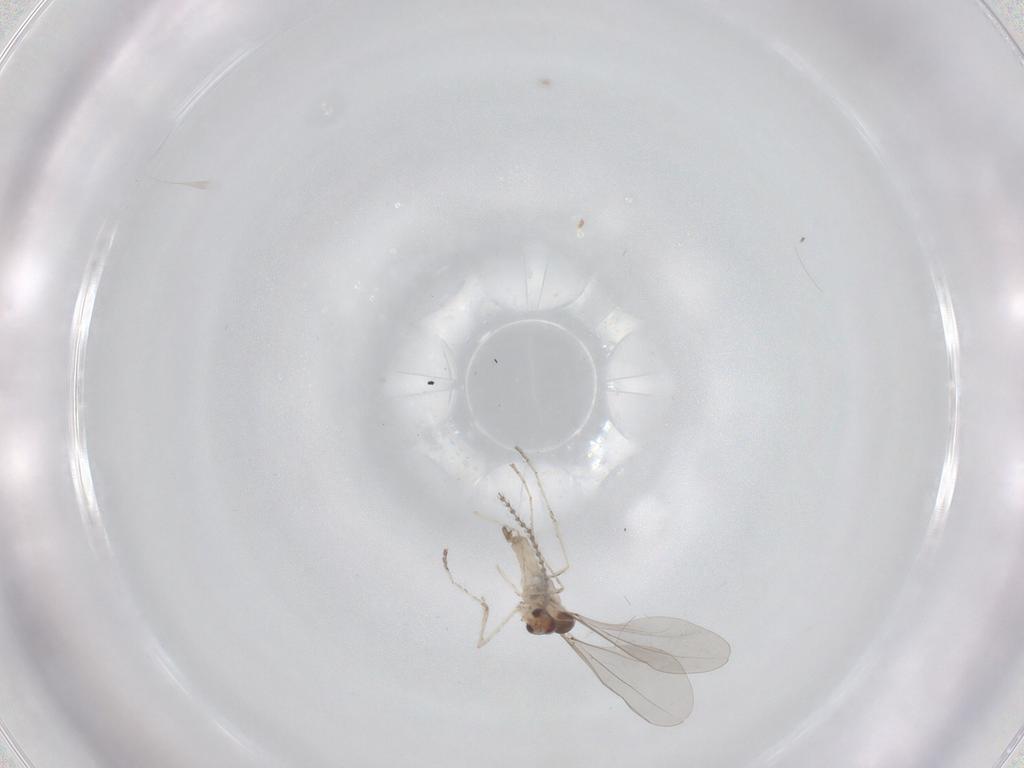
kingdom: Animalia
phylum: Arthropoda
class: Insecta
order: Diptera
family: Cecidomyiidae
